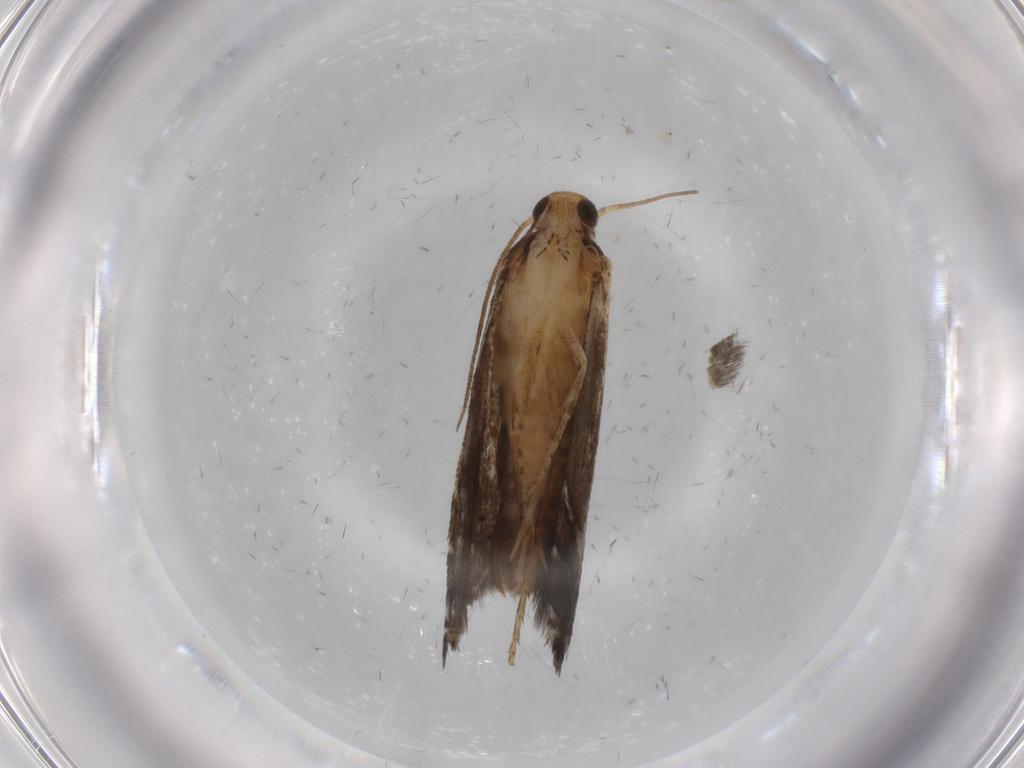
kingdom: Animalia
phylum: Arthropoda
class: Insecta
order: Lepidoptera
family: Glyphipterigidae
